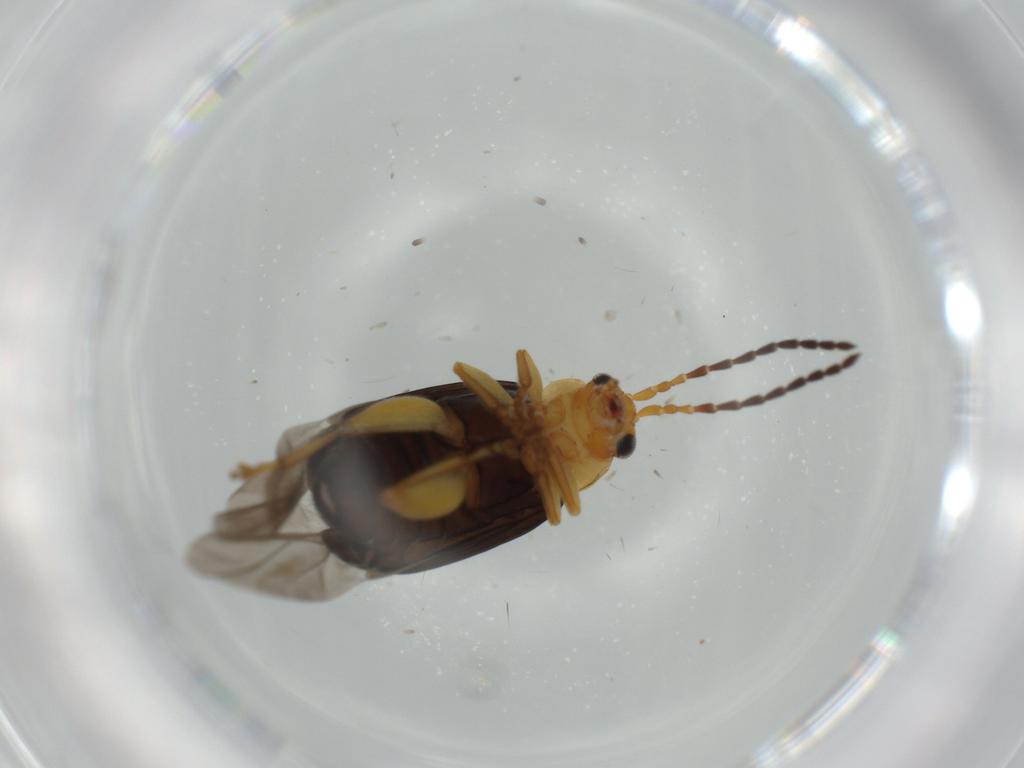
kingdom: Animalia
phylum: Arthropoda
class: Insecta
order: Coleoptera
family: Chrysomelidae
